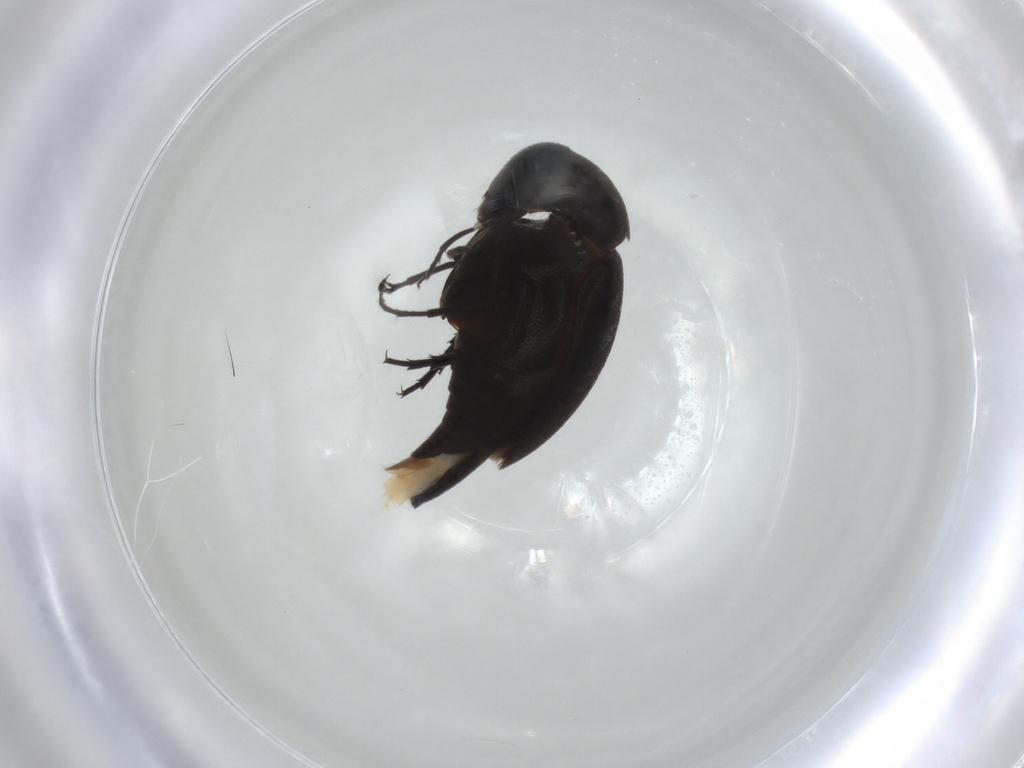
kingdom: Animalia
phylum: Arthropoda
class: Insecta
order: Coleoptera
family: Mordellidae
